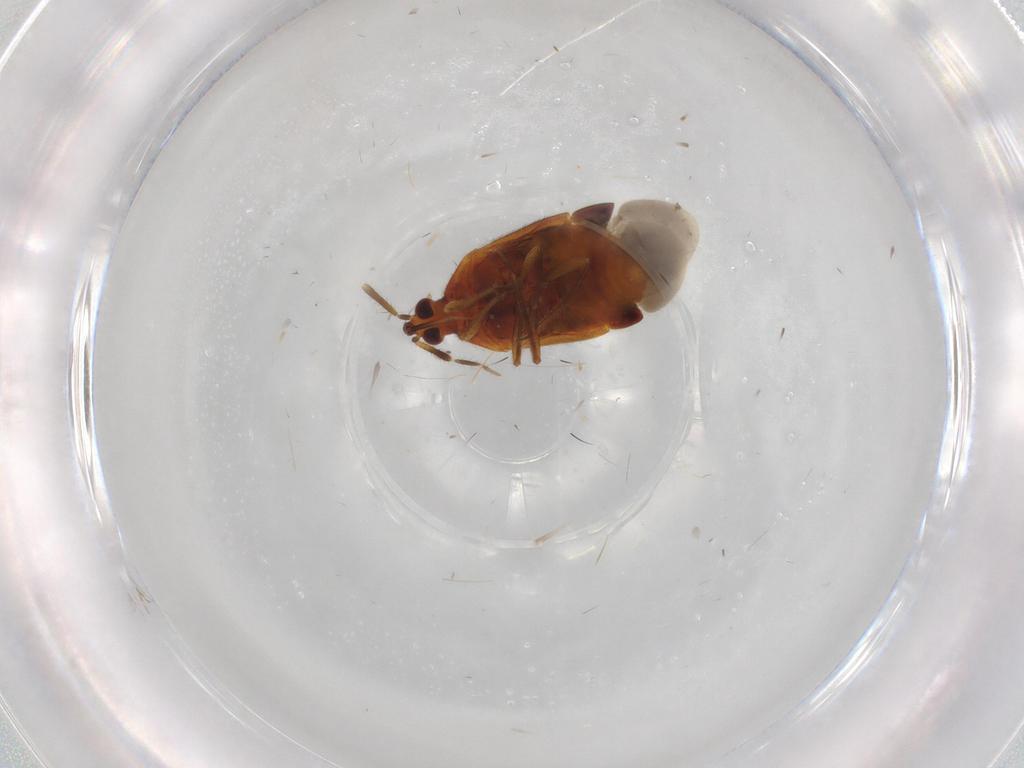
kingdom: Animalia
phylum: Arthropoda
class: Insecta
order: Hemiptera
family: Anthocoridae
